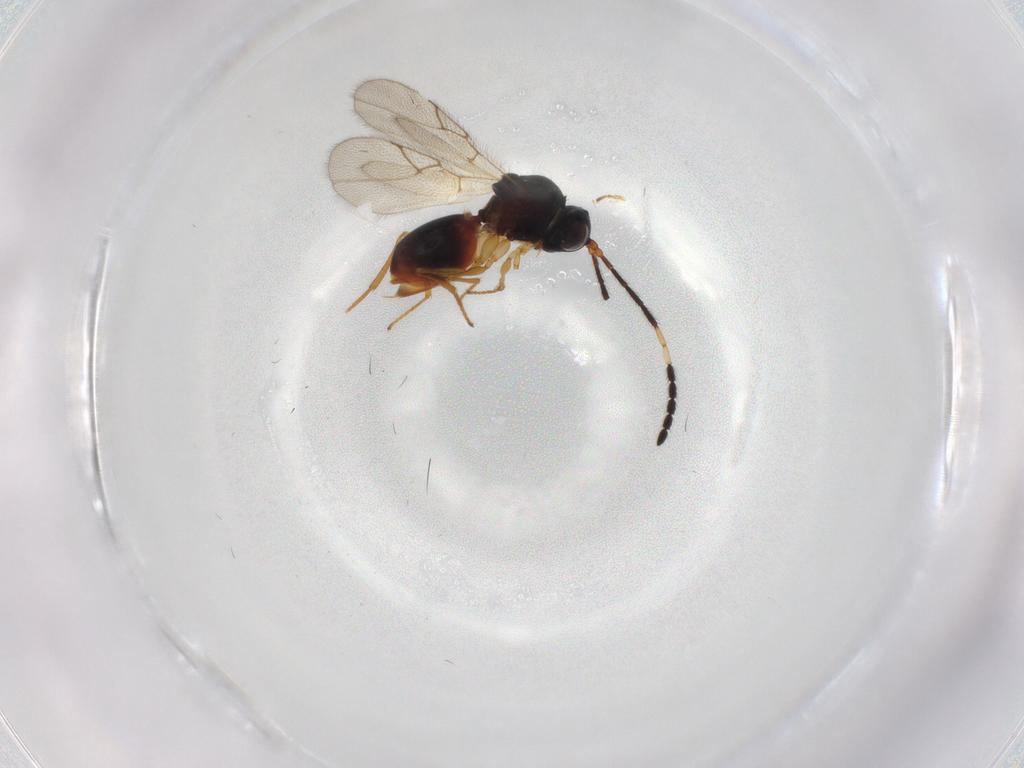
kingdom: Animalia
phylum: Arthropoda
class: Insecta
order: Hymenoptera
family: Figitidae
